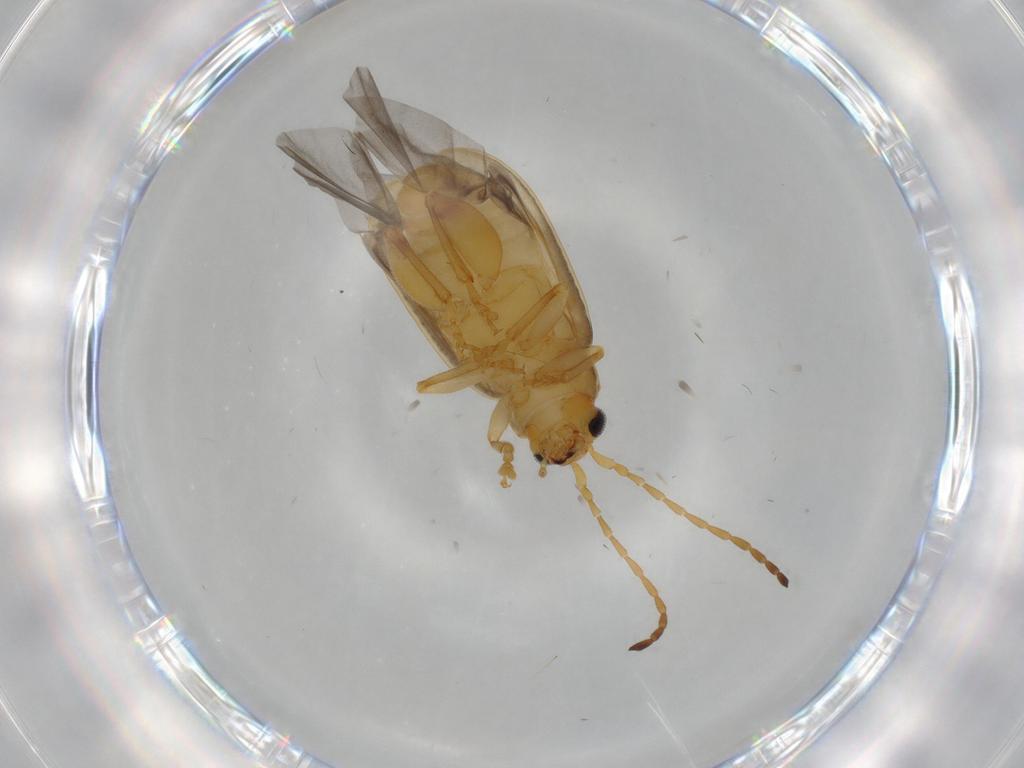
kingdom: Animalia
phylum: Arthropoda
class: Insecta
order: Coleoptera
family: Chrysomelidae
